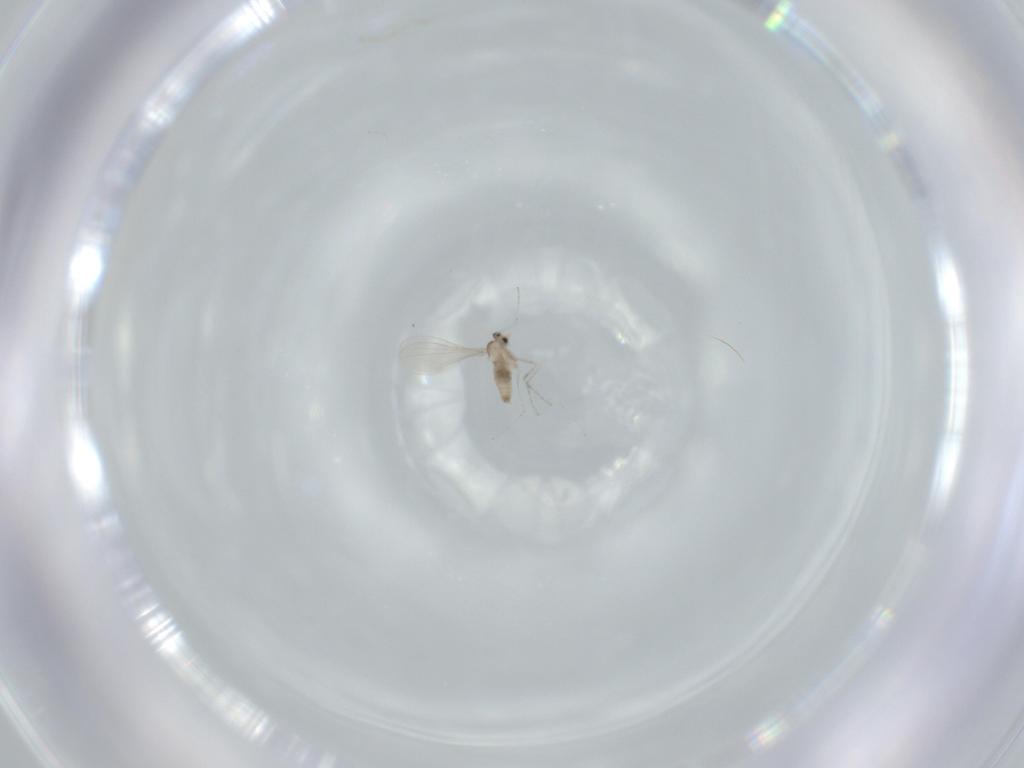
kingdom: Animalia
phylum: Arthropoda
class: Insecta
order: Diptera
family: Cecidomyiidae
